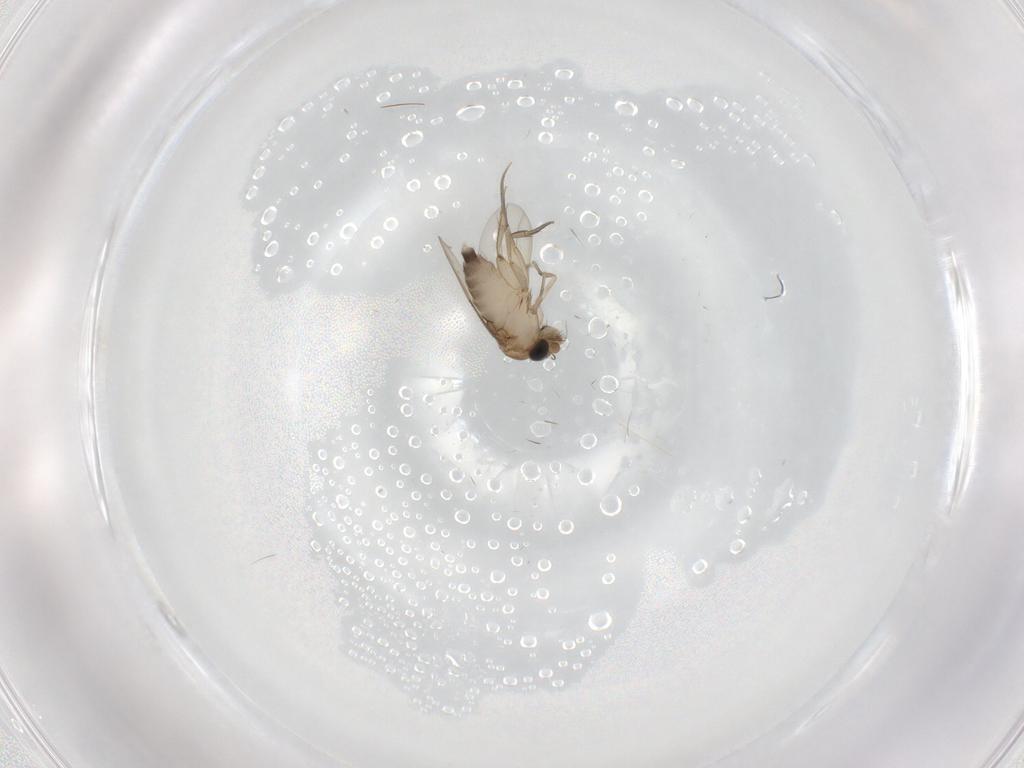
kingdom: Animalia
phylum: Arthropoda
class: Insecta
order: Diptera
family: Phoridae
